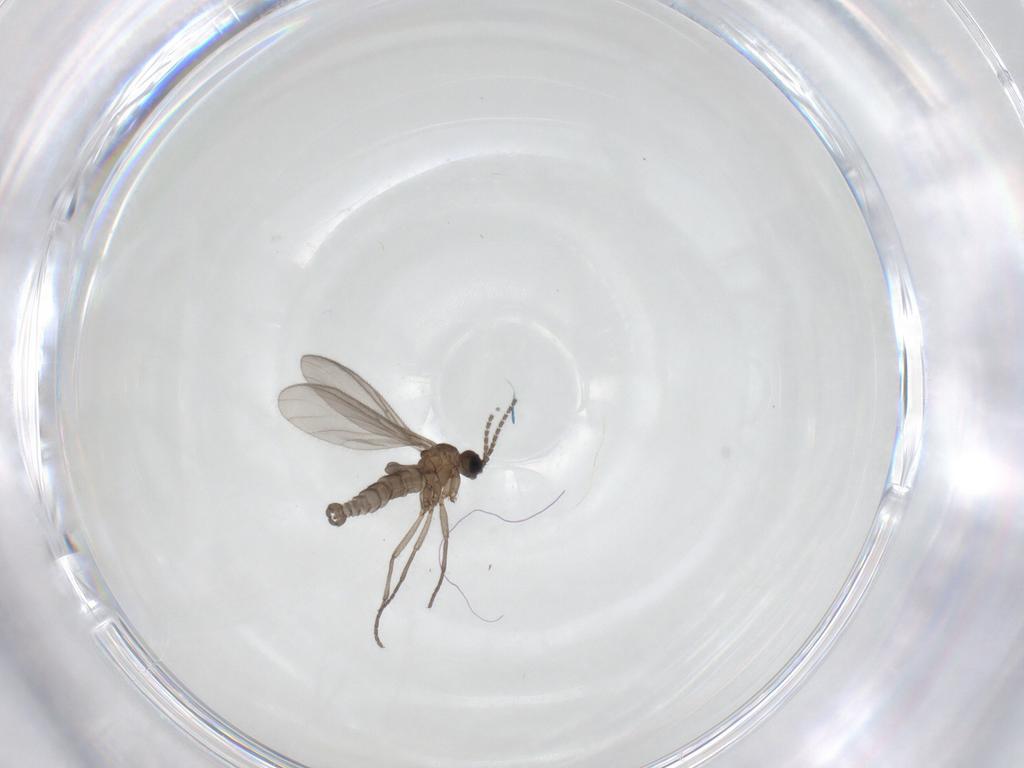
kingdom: Animalia
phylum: Arthropoda
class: Insecta
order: Diptera
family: Sciaridae
